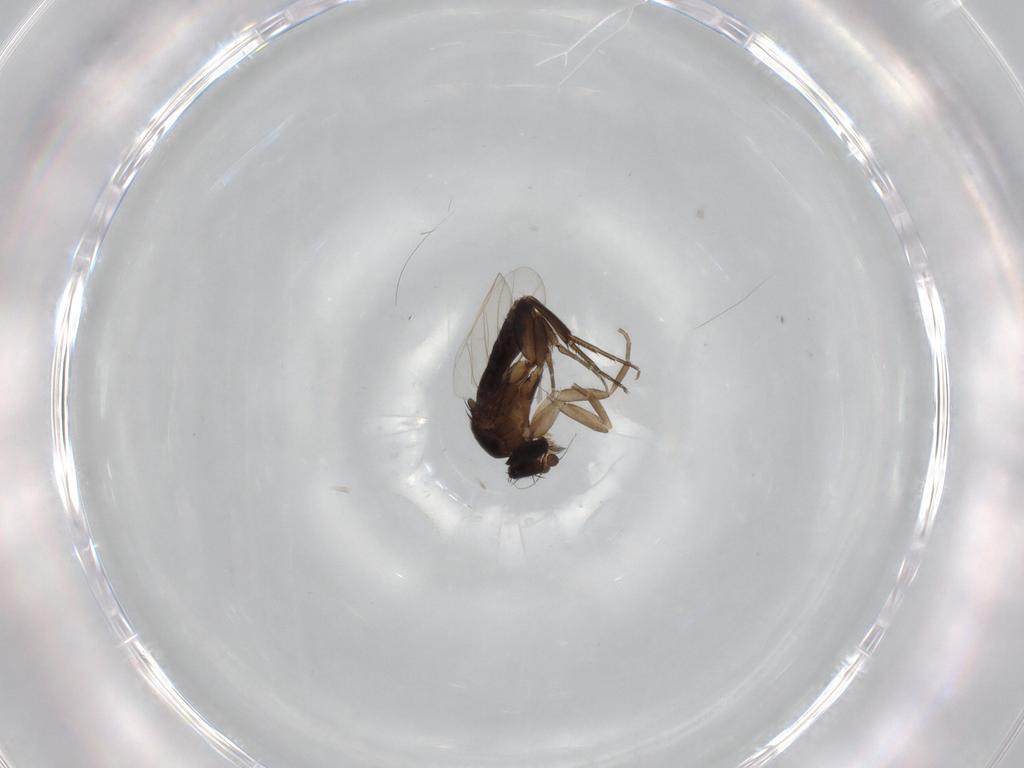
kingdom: Animalia
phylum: Arthropoda
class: Insecta
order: Diptera
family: Phoridae
